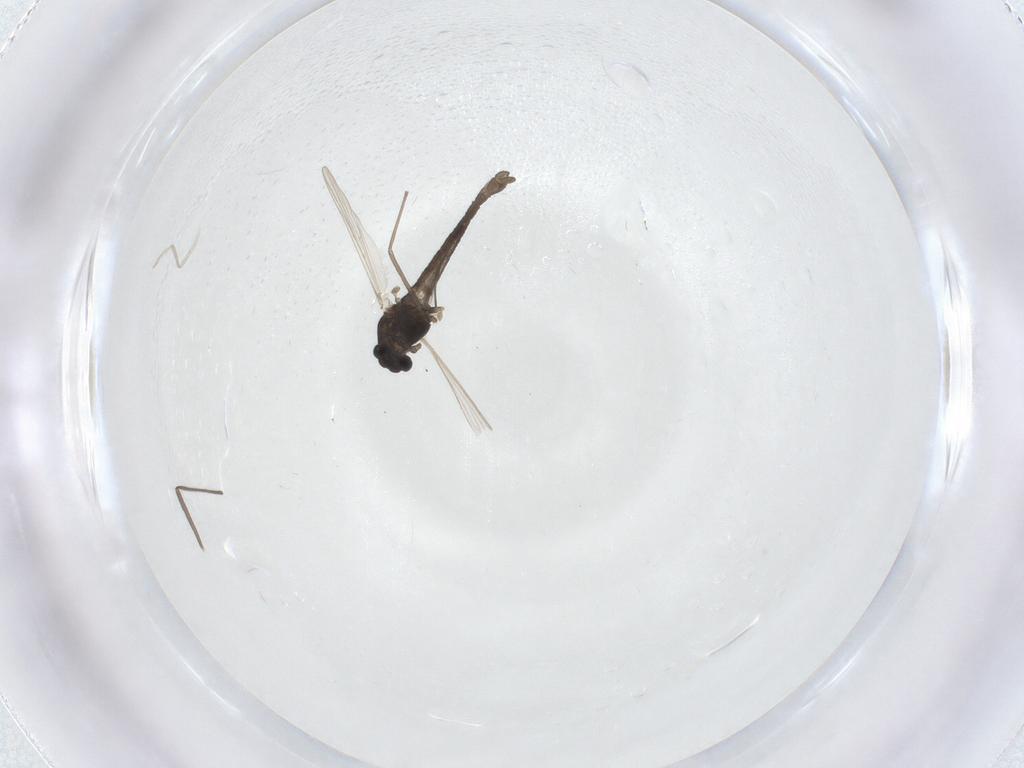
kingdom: Animalia
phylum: Arthropoda
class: Insecta
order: Diptera
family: Chironomidae
